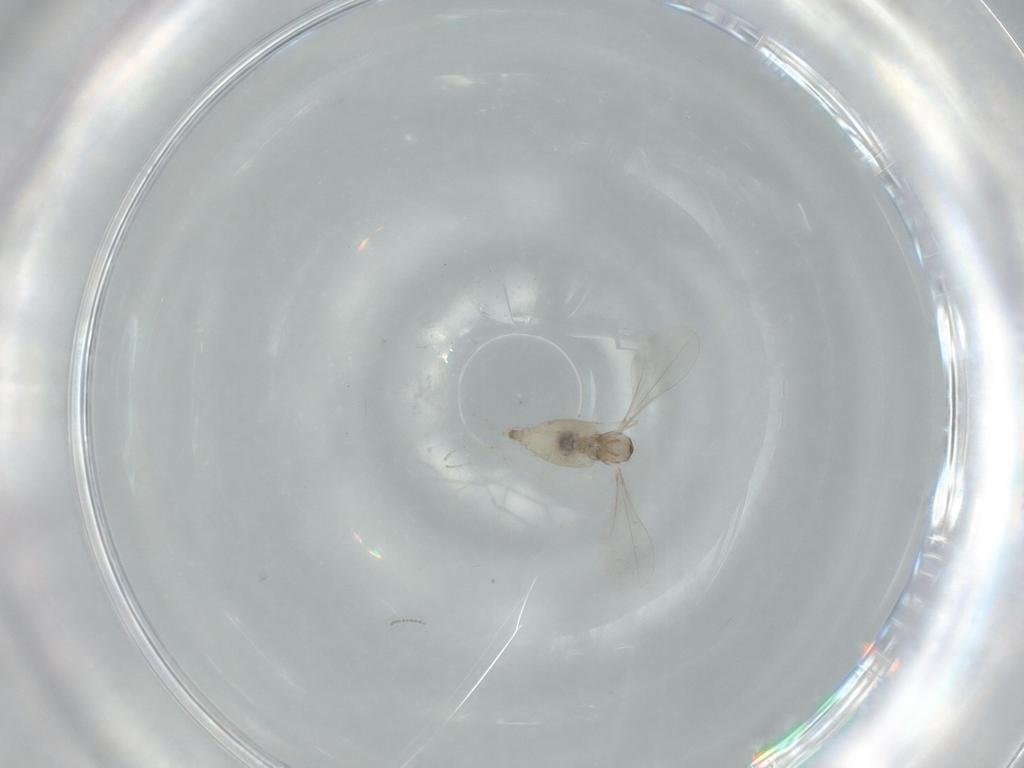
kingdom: Animalia
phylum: Arthropoda
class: Insecta
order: Diptera
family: Cecidomyiidae
